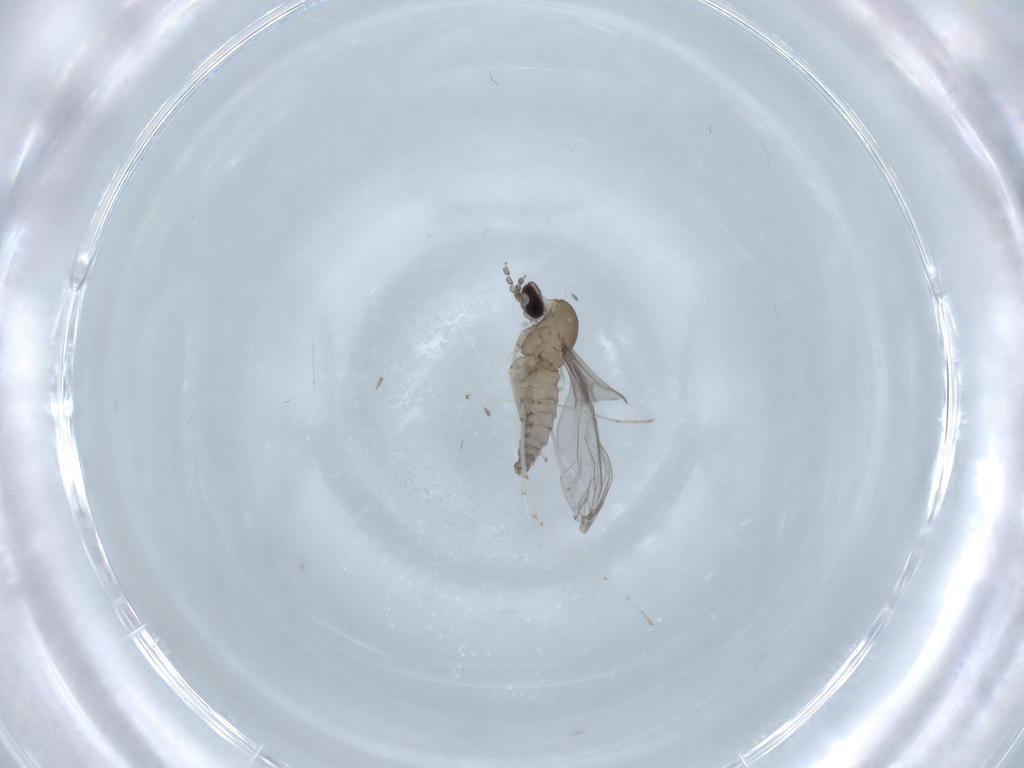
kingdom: Animalia
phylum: Arthropoda
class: Insecta
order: Diptera
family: Cecidomyiidae
